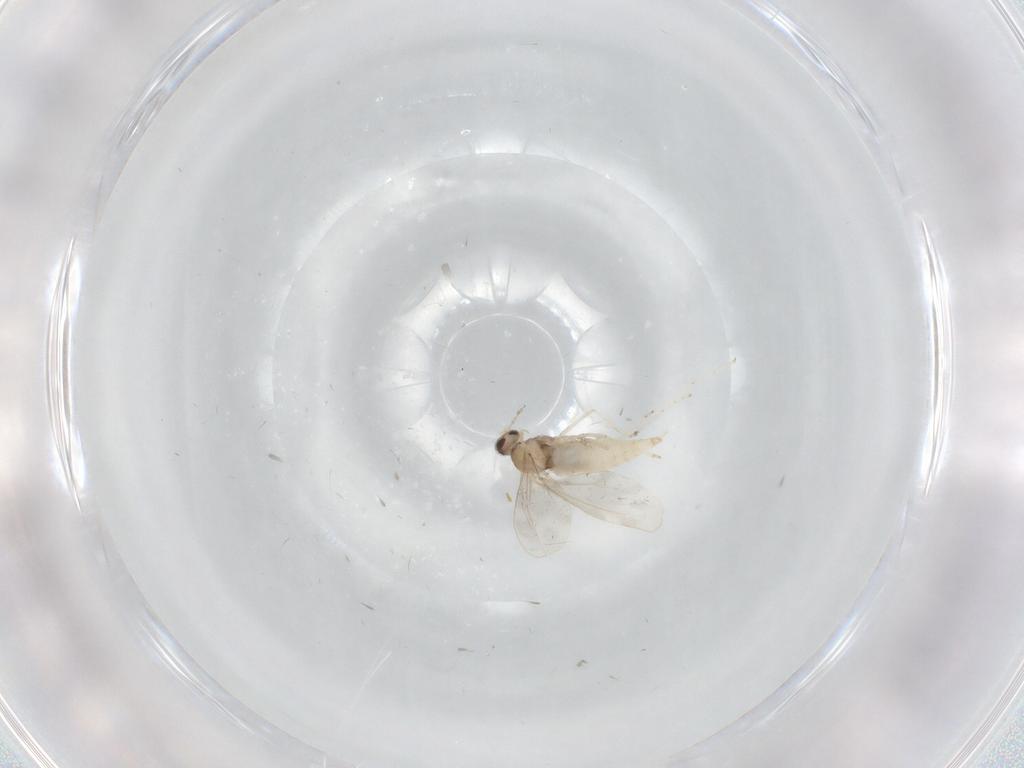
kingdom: Animalia
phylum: Arthropoda
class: Insecta
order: Diptera
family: Cecidomyiidae
